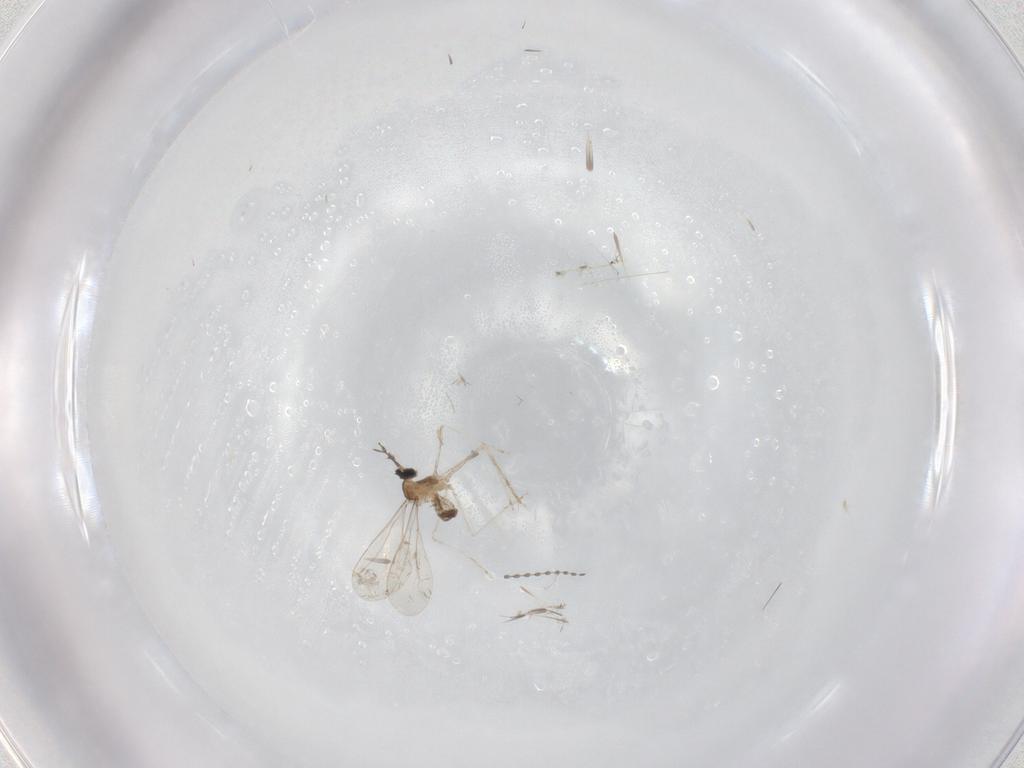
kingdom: Animalia
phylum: Arthropoda
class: Insecta
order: Diptera
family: Cecidomyiidae
